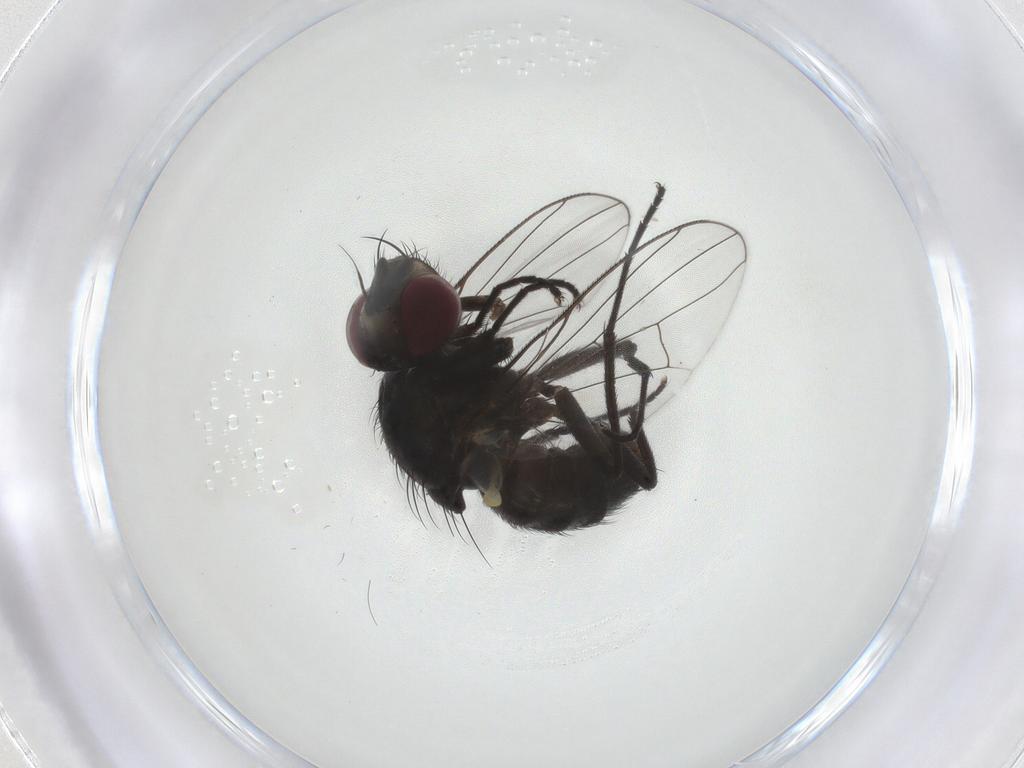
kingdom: Animalia
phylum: Arthropoda
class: Insecta
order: Diptera
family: Muscidae
